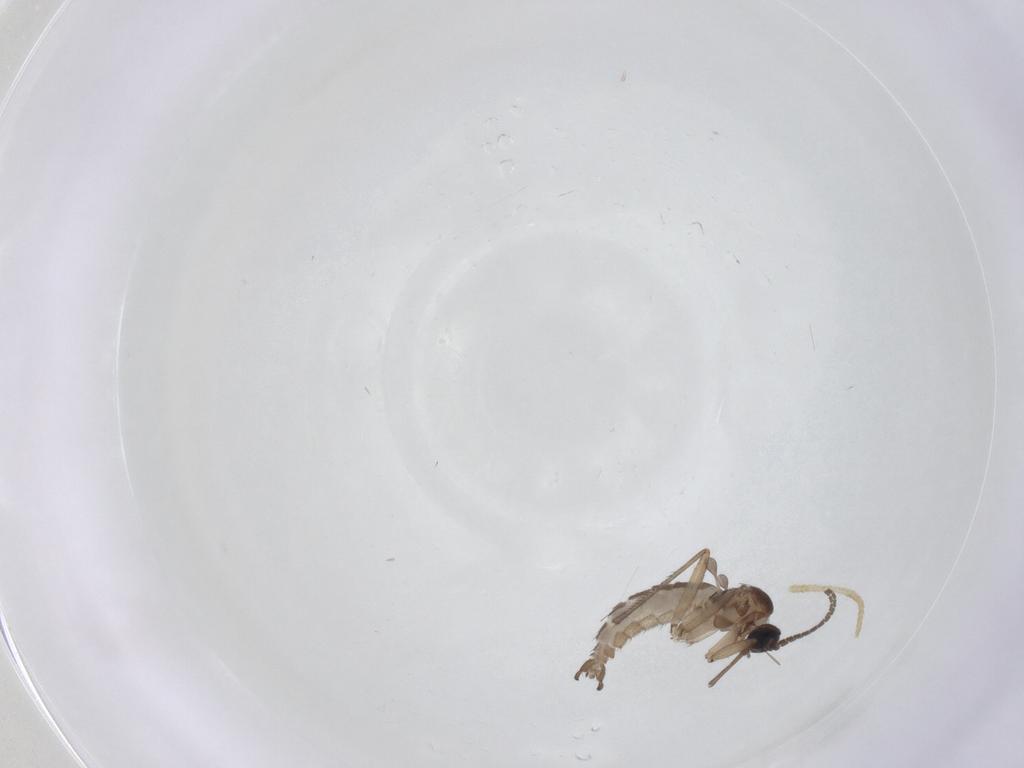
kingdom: Animalia
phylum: Arthropoda
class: Insecta
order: Diptera
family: Sciaridae
